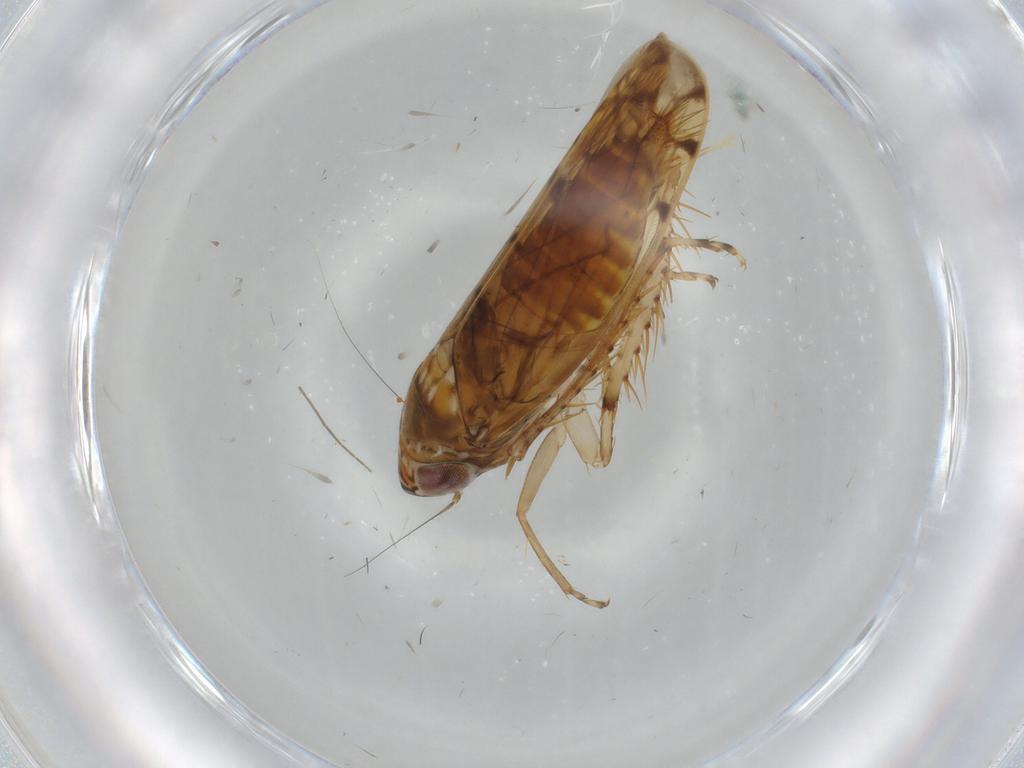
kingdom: Animalia
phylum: Arthropoda
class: Insecta
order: Hemiptera
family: Cicadellidae
